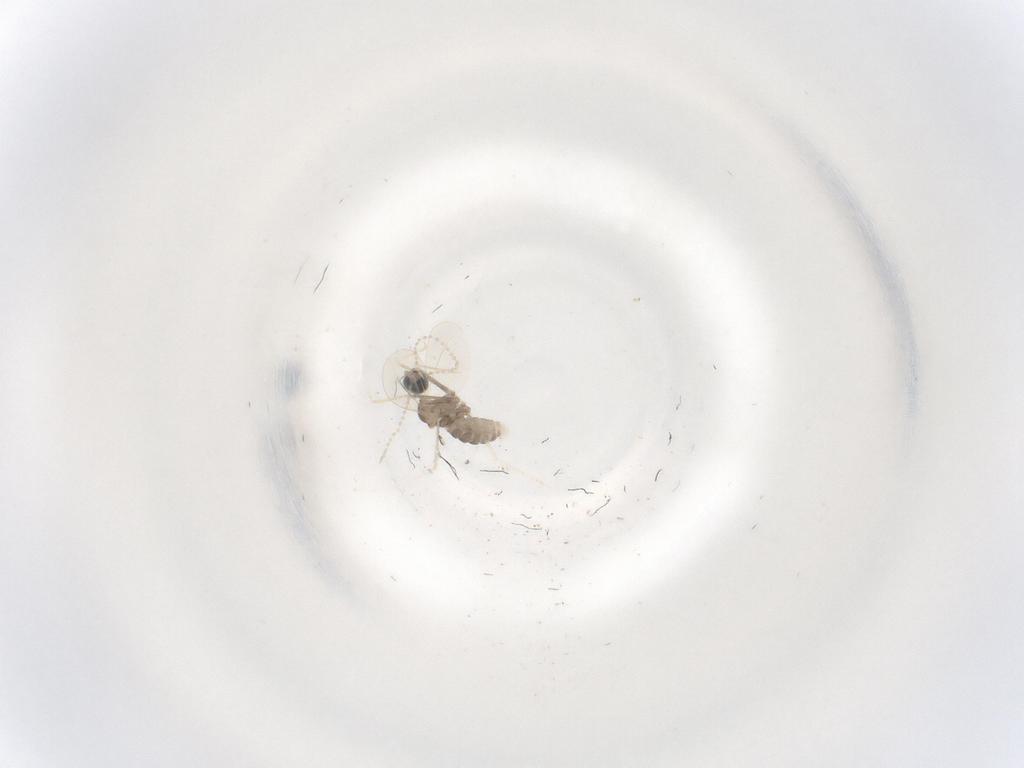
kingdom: Animalia
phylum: Arthropoda
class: Insecta
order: Diptera
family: Cecidomyiidae
